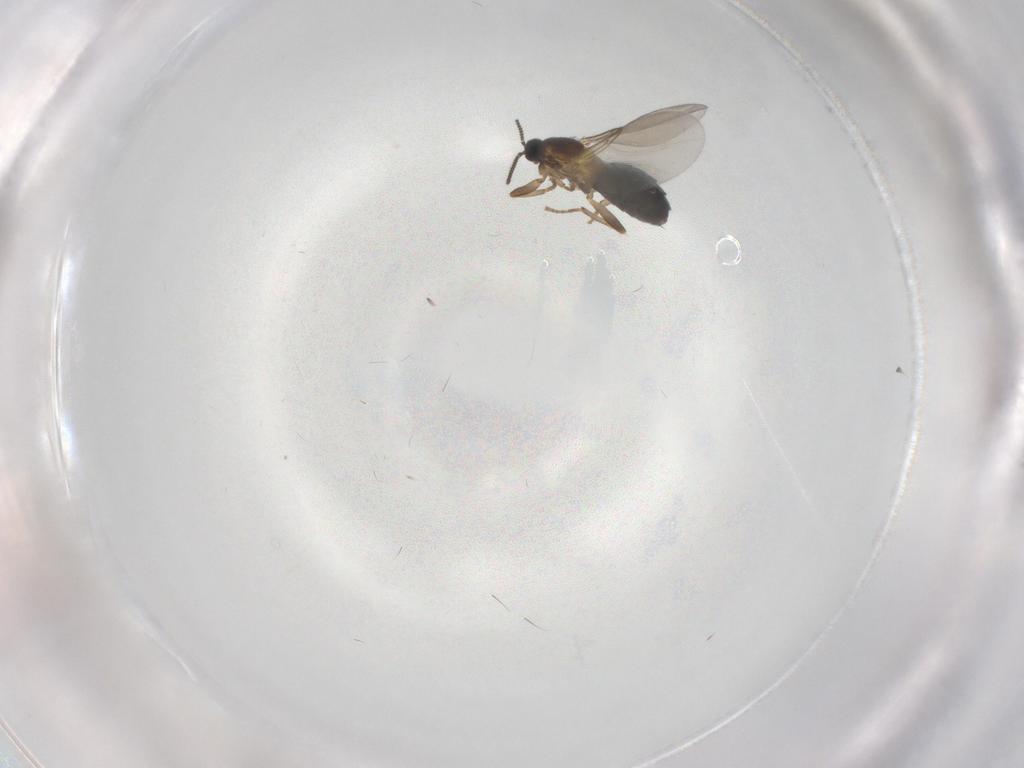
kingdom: Animalia
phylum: Arthropoda
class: Insecta
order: Diptera
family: Scatopsidae
